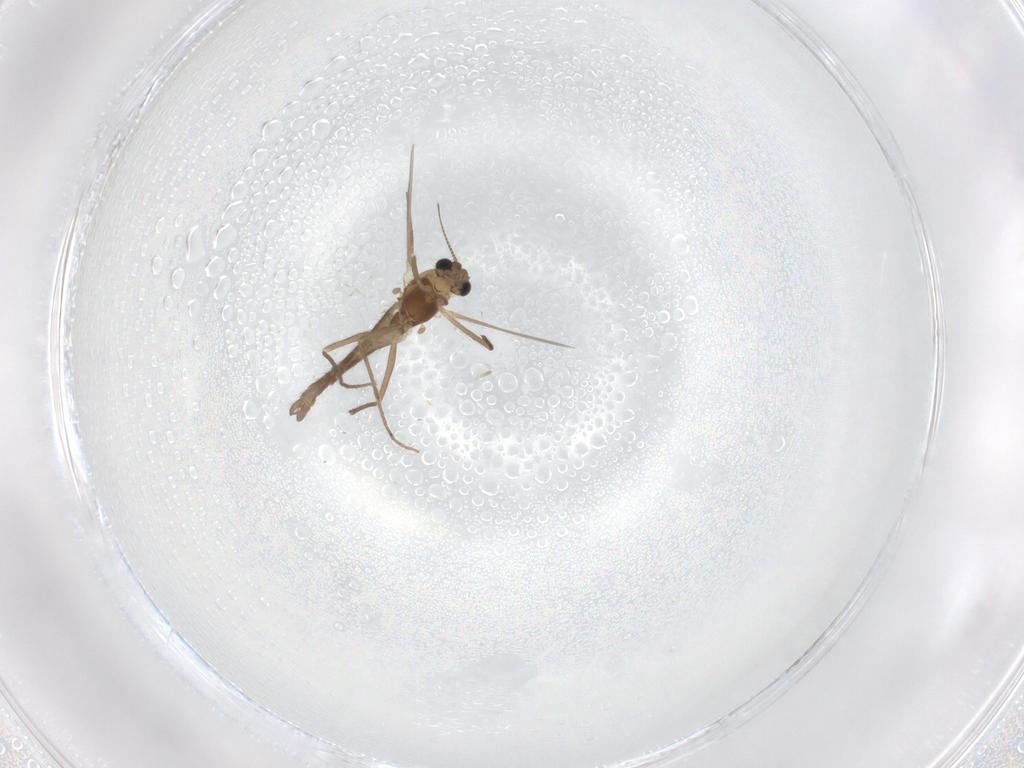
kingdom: Animalia
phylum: Arthropoda
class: Insecta
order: Diptera
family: Chironomidae
